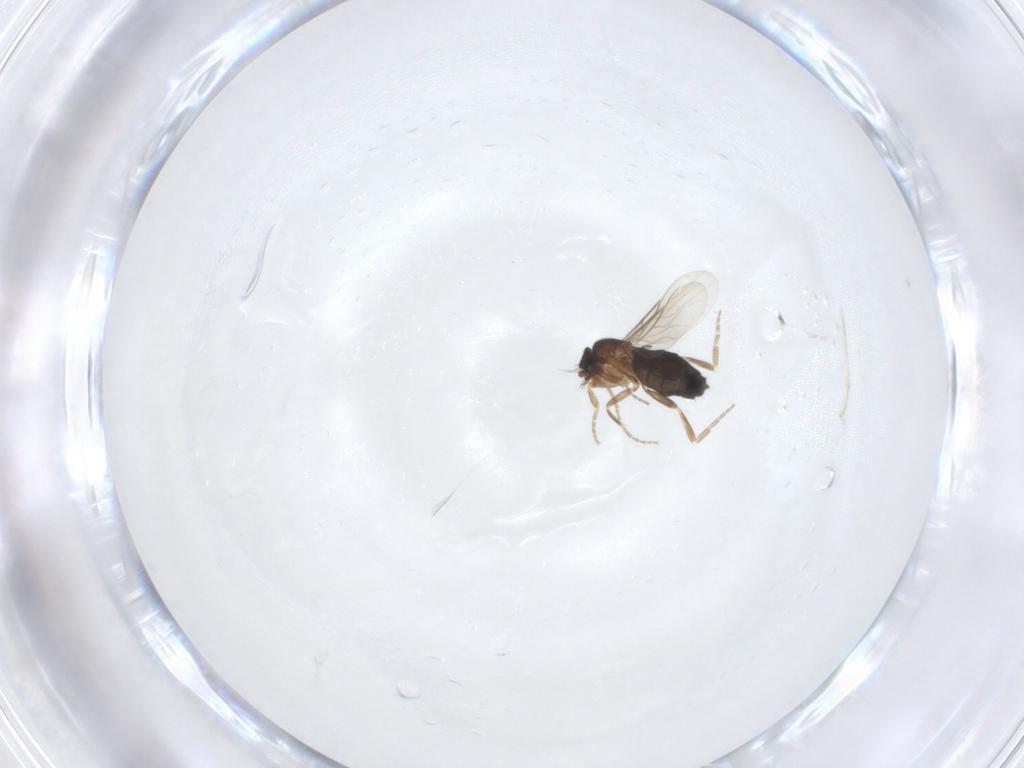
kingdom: Animalia
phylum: Arthropoda
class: Insecta
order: Diptera
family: Phoridae
